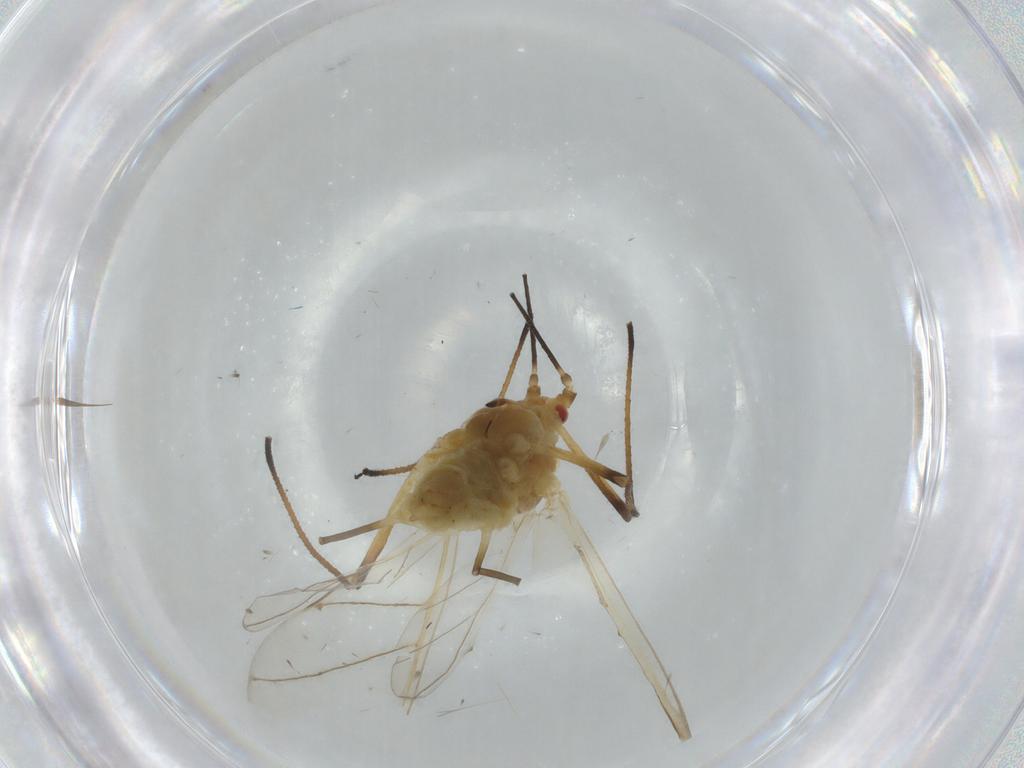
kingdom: Animalia
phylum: Arthropoda
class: Insecta
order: Hemiptera
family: Aphididae
